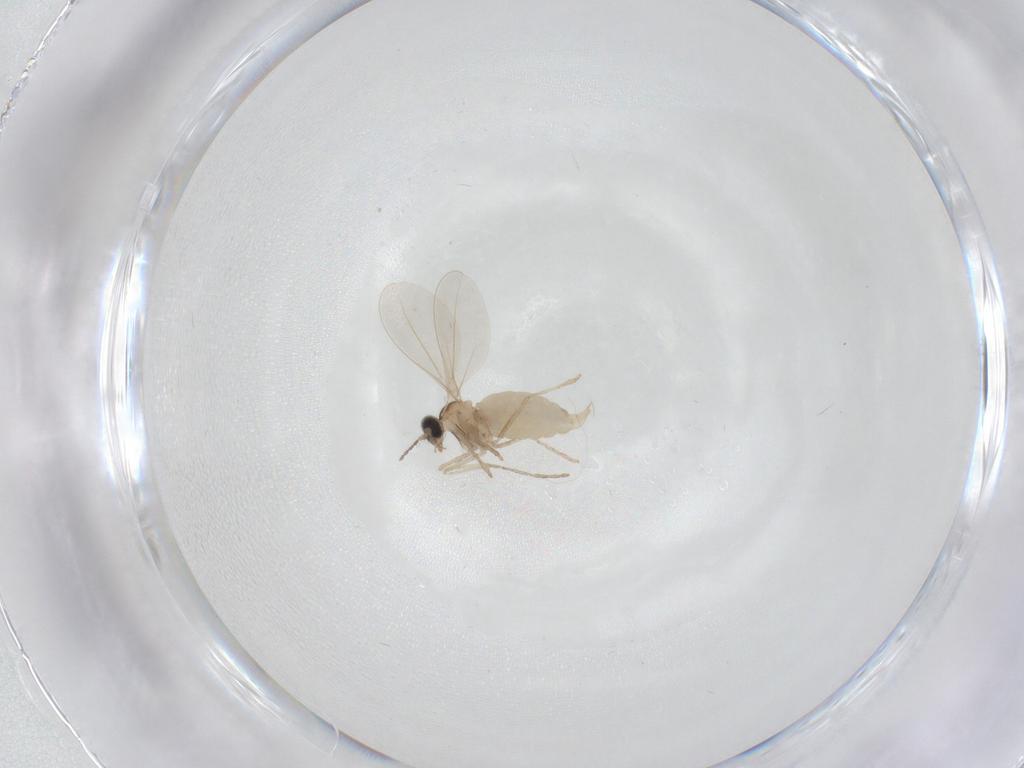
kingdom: Animalia
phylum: Arthropoda
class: Insecta
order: Diptera
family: Cecidomyiidae
